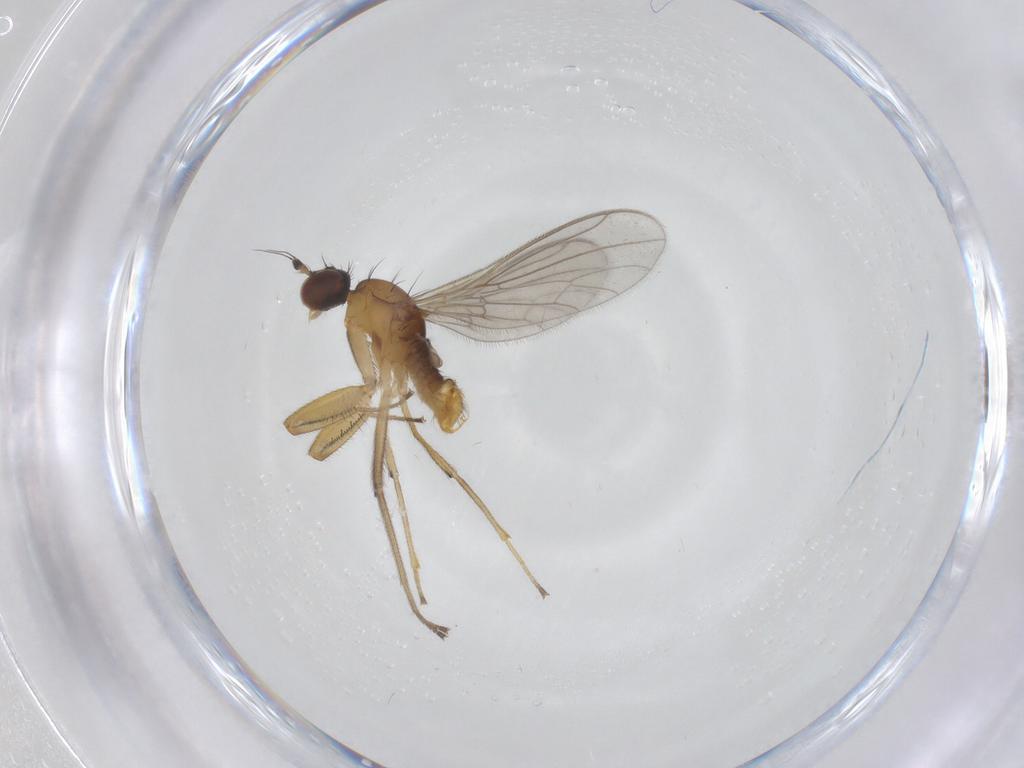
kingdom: Animalia
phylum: Arthropoda
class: Insecta
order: Diptera
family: Empididae
